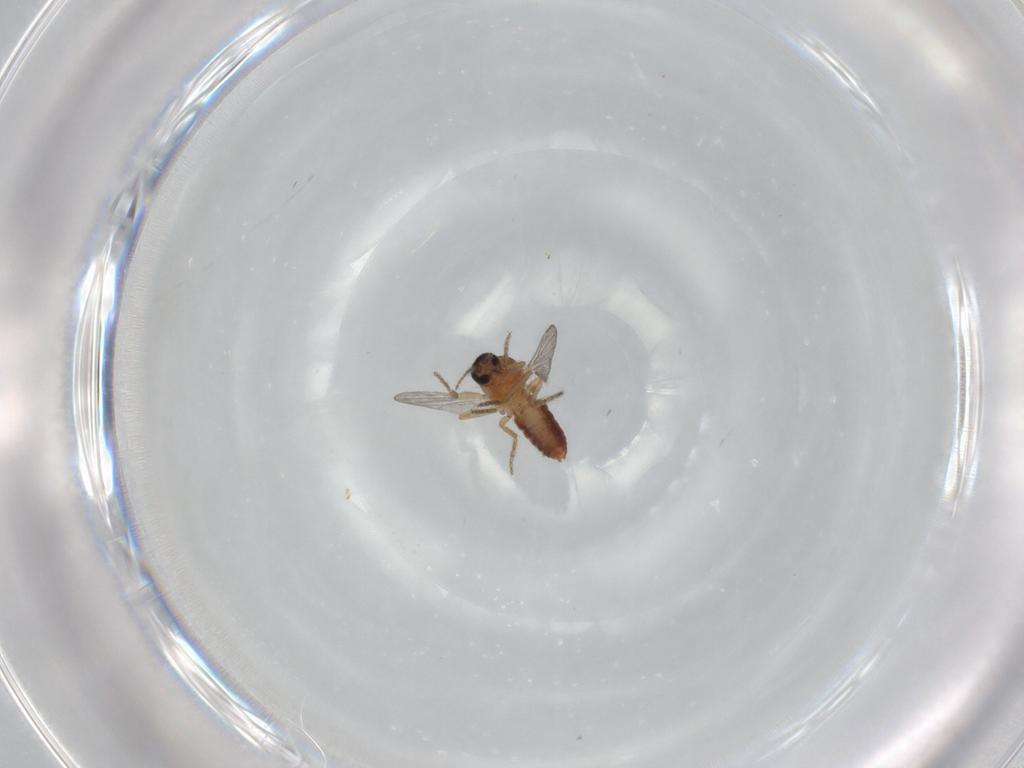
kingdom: Animalia
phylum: Arthropoda
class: Insecta
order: Diptera
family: Ceratopogonidae
